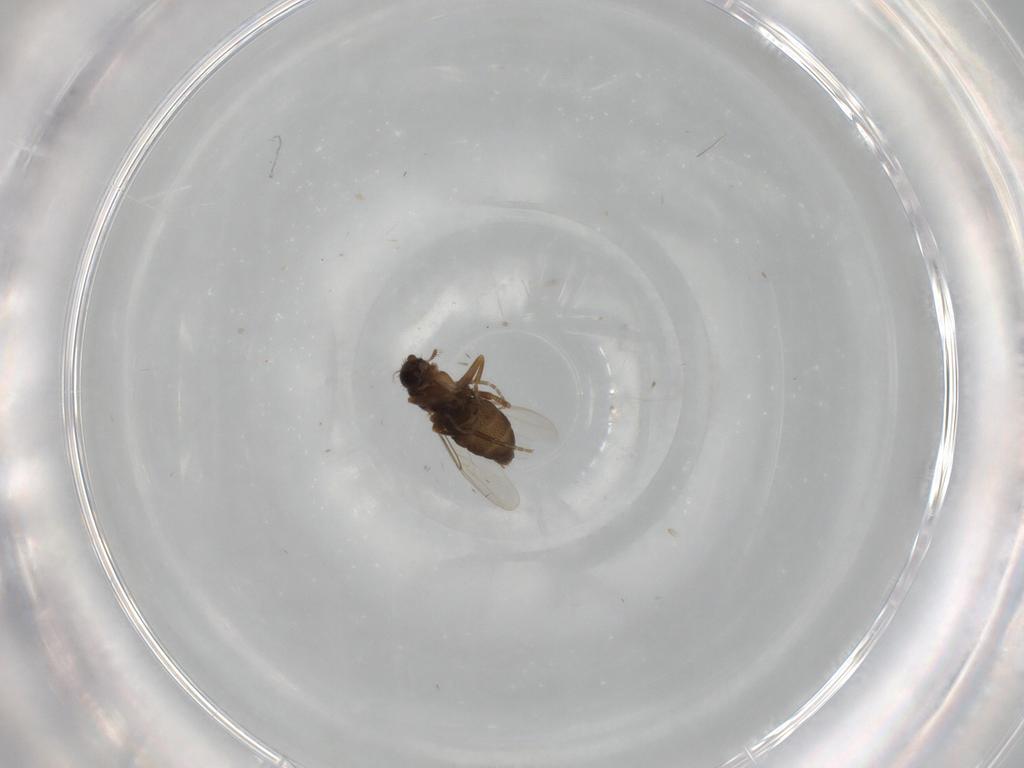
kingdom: Animalia
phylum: Arthropoda
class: Insecta
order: Diptera
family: Phoridae
